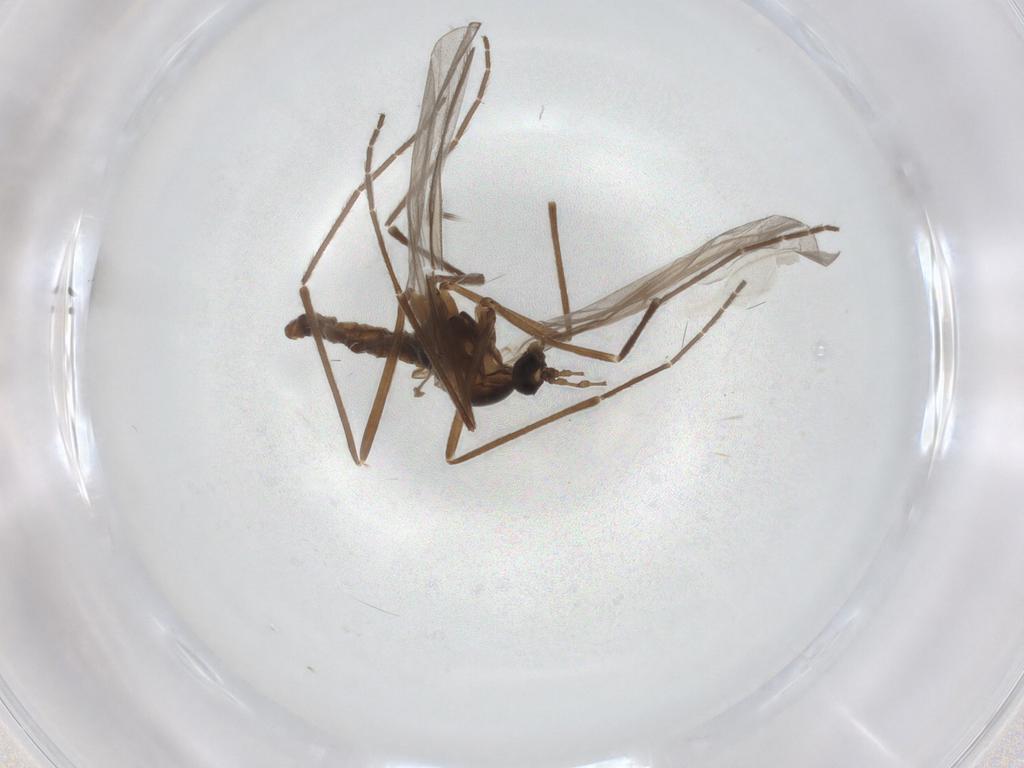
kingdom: Animalia
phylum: Arthropoda
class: Insecta
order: Diptera
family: Cecidomyiidae
